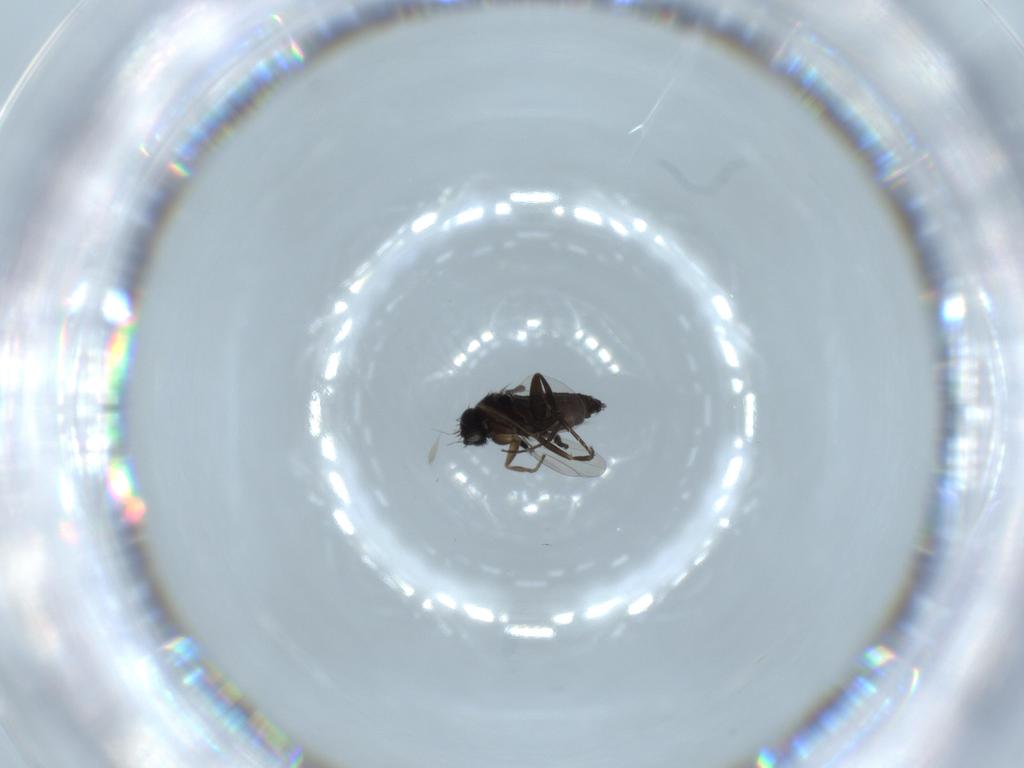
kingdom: Animalia
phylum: Arthropoda
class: Insecta
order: Diptera
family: Phoridae
